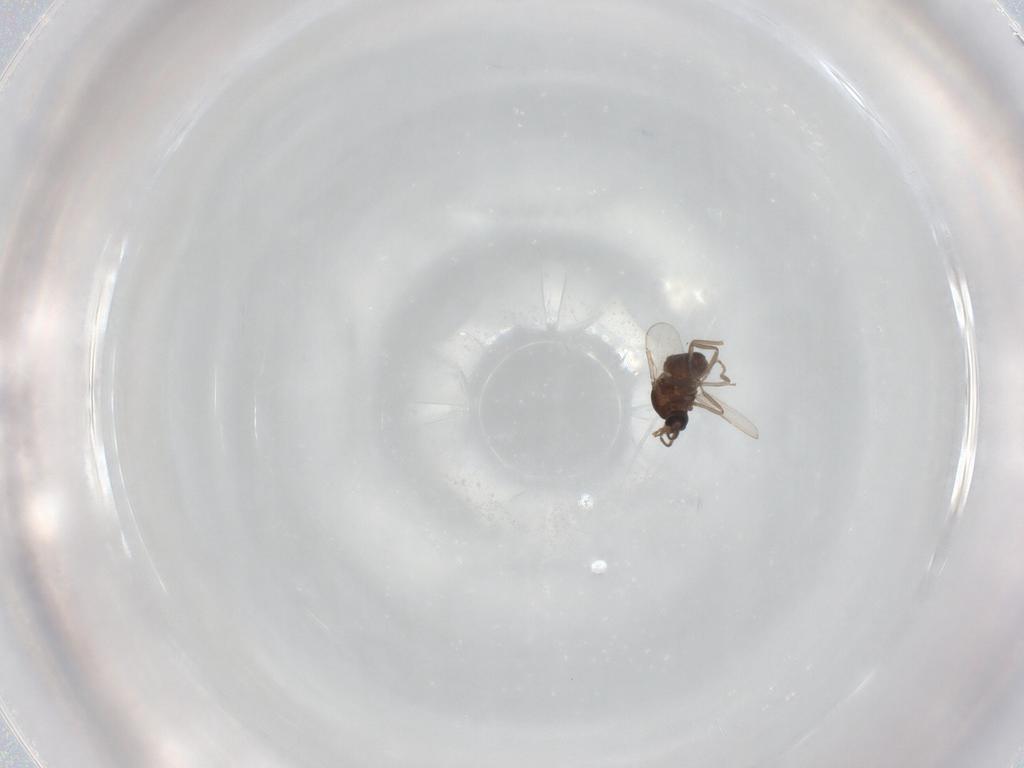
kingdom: Animalia
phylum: Arthropoda
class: Insecta
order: Diptera
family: Ceratopogonidae
